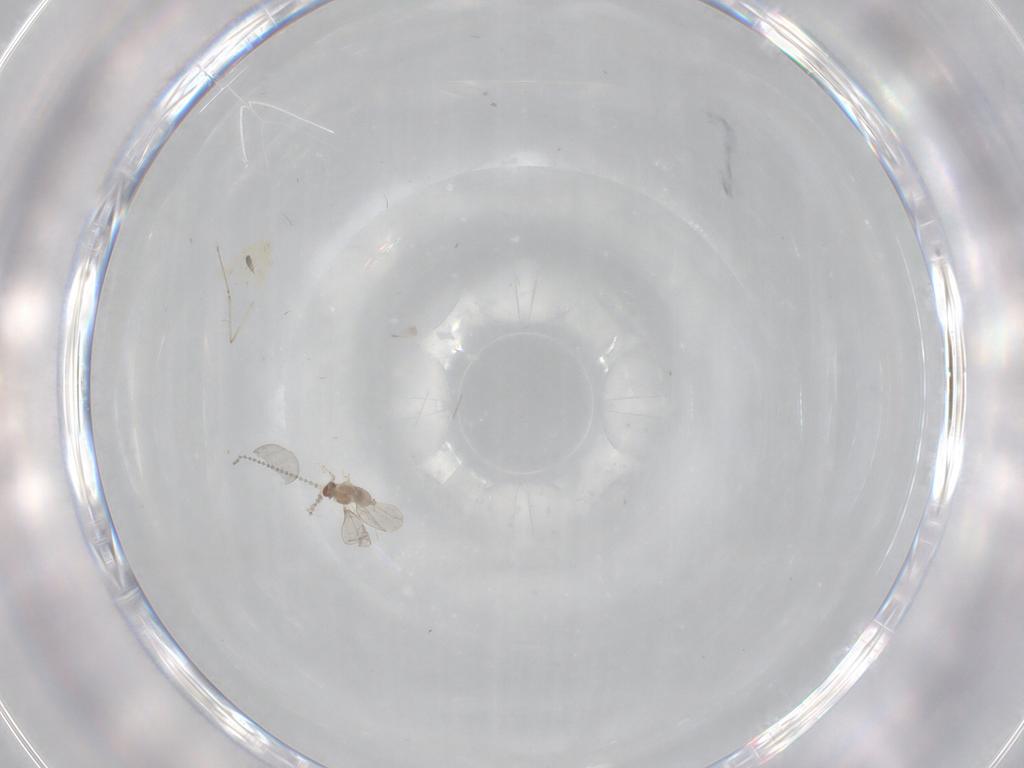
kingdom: Animalia
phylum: Arthropoda
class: Insecta
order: Diptera
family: Cecidomyiidae
